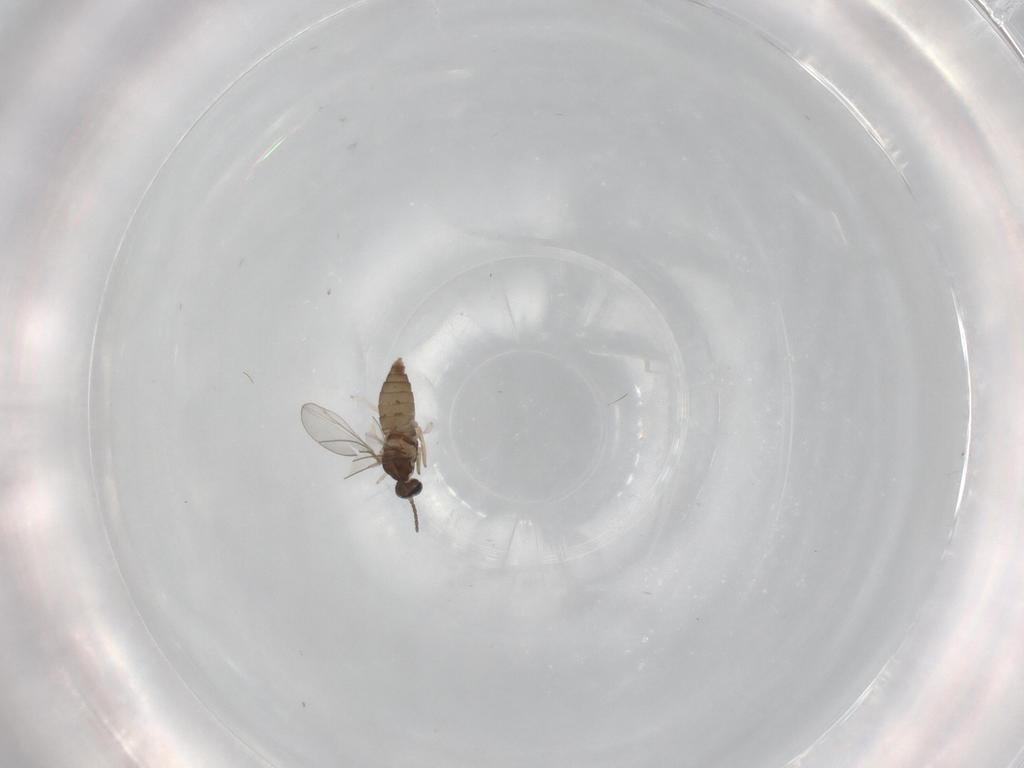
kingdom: Animalia
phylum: Arthropoda
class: Insecta
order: Diptera
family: Cecidomyiidae
